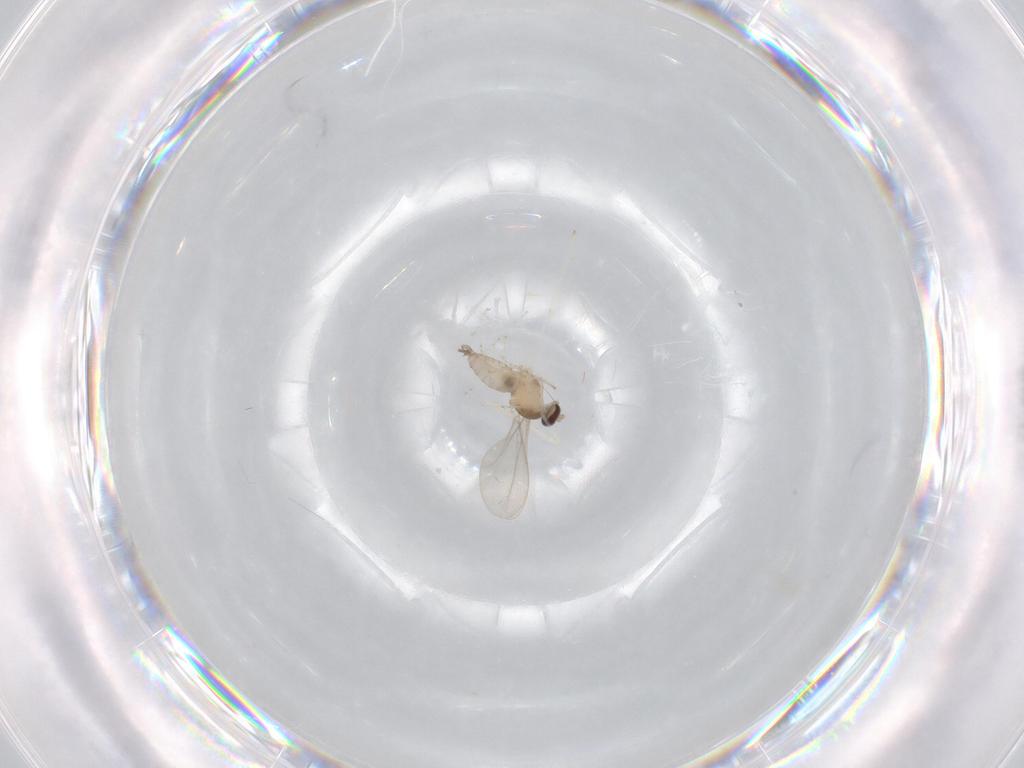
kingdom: Animalia
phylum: Arthropoda
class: Insecta
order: Diptera
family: Cecidomyiidae
